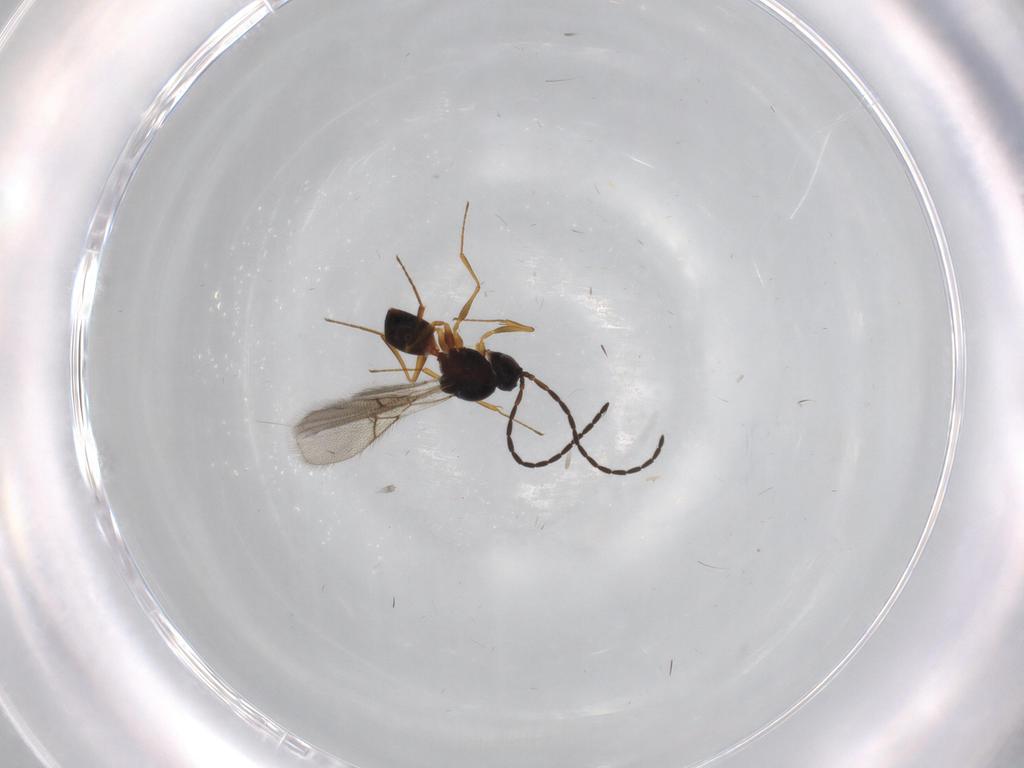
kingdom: Animalia
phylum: Arthropoda
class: Insecta
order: Hymenoptera
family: Figitidae
